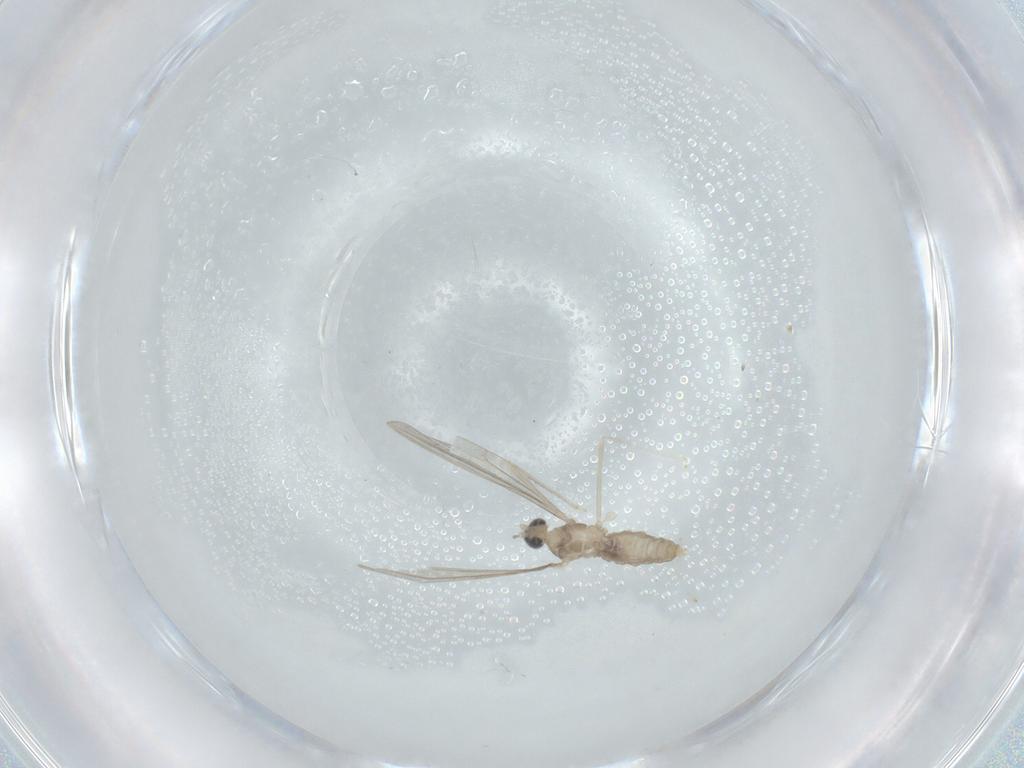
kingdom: Animalia
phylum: Arthropoda
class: Insecta
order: Diptera
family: Cecidomyiidae
